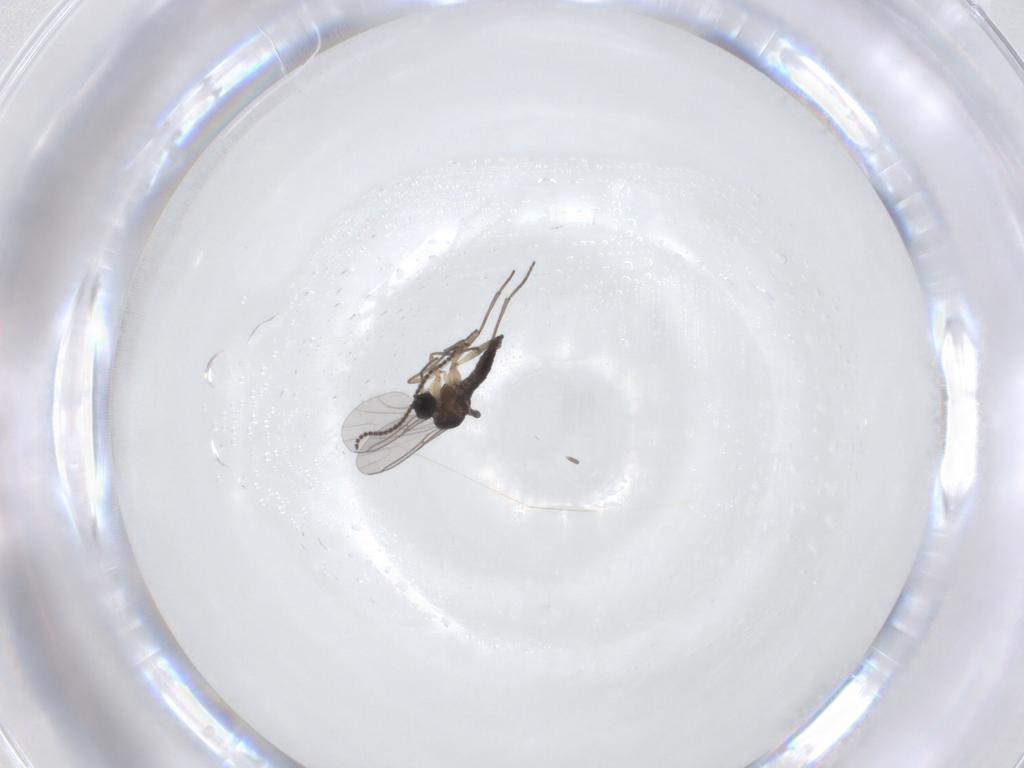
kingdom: Animalia
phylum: Arthropoda
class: Insecta
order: Diptera
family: Sciaridae
